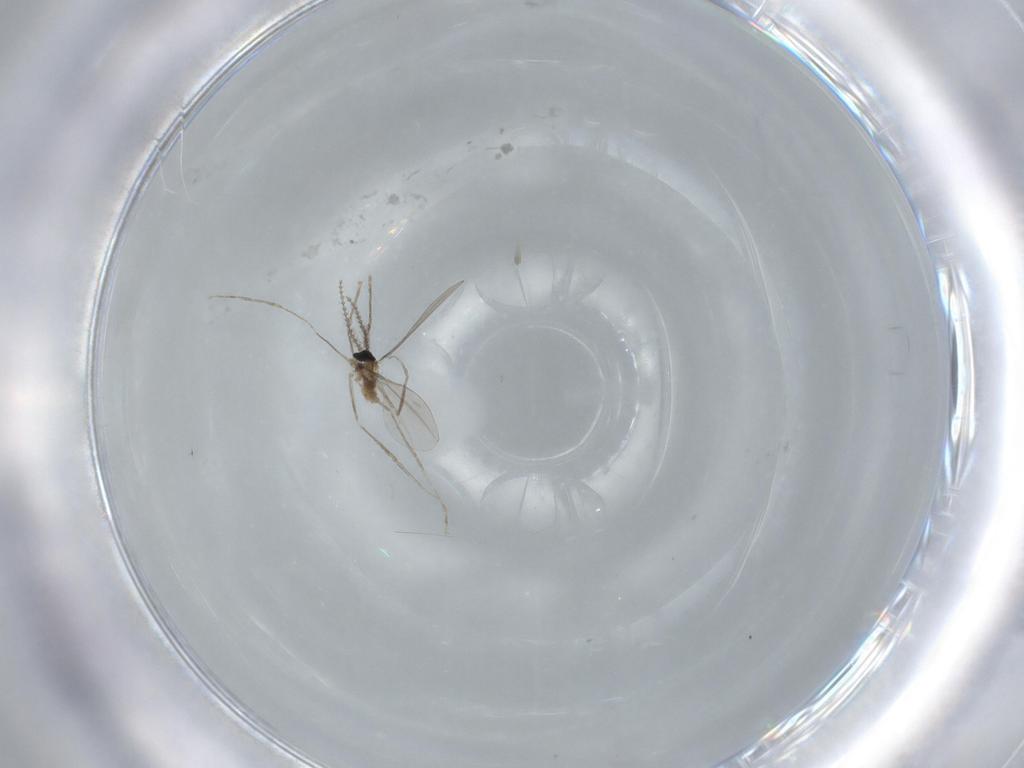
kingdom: Animalia
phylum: Arthropoda
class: Insecta
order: Diptera
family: Cecidomyiidae
